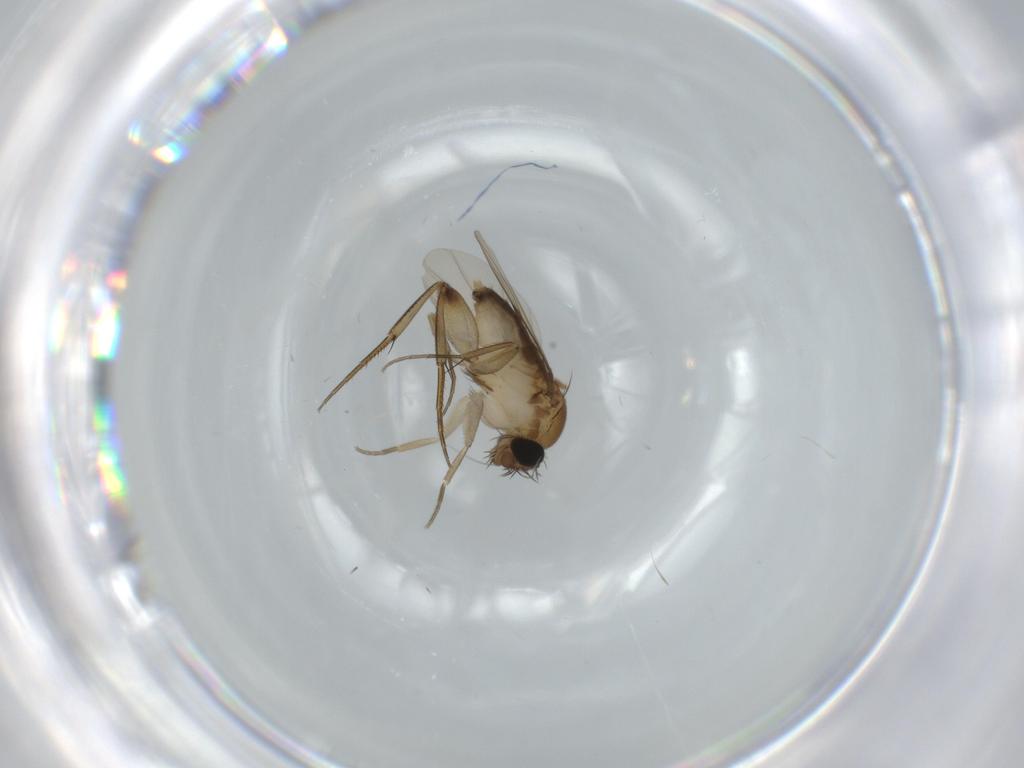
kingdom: Animalia
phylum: Arthropoda
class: Insecta
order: Diptera
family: Phoridae
